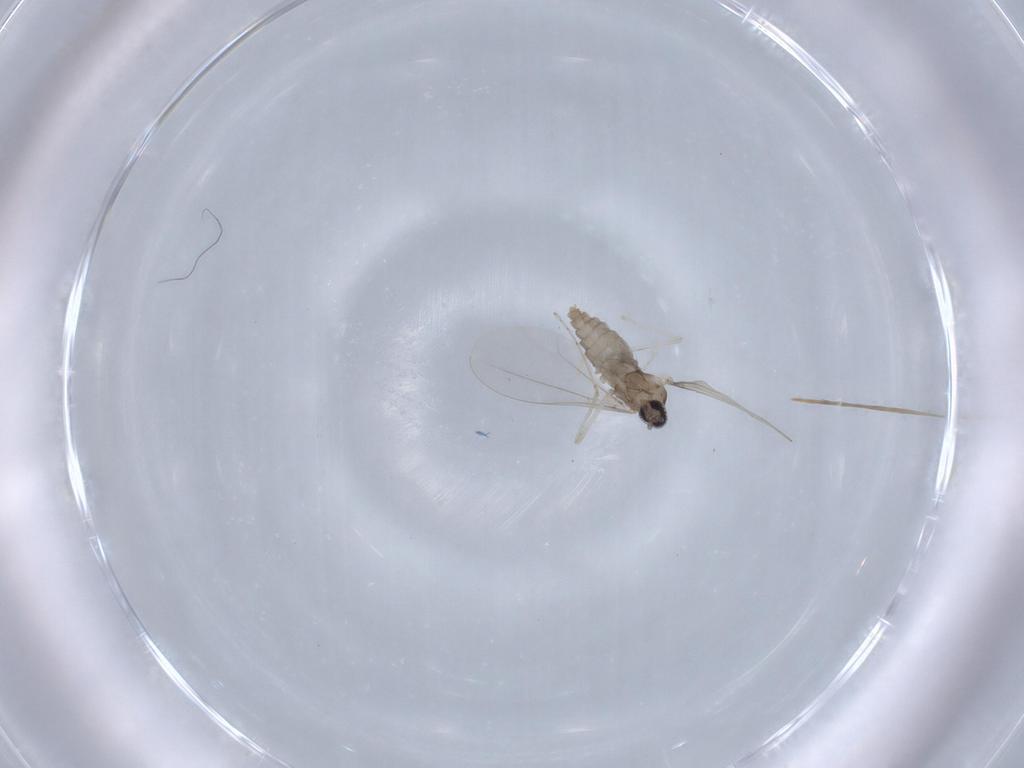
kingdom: Animalia
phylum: Arthropoda
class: Insecta
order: Diptera
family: Cecidomyiidae
